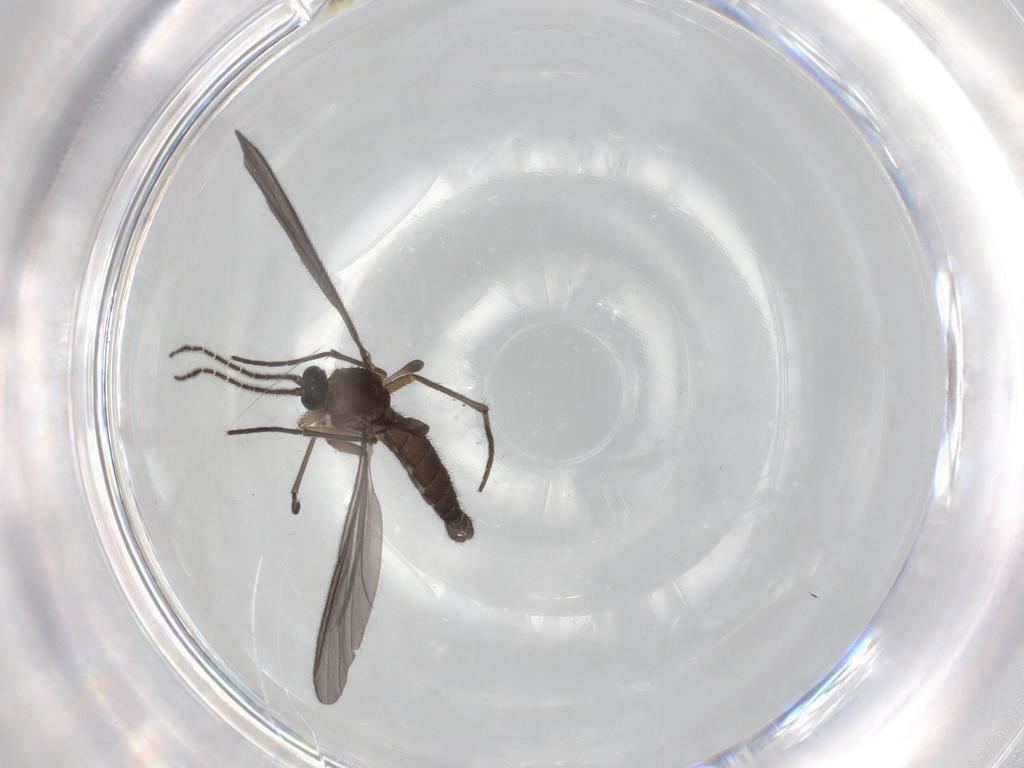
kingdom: Animalia
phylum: Arthropoda
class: Insecta
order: Diptera
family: Sciaridae
